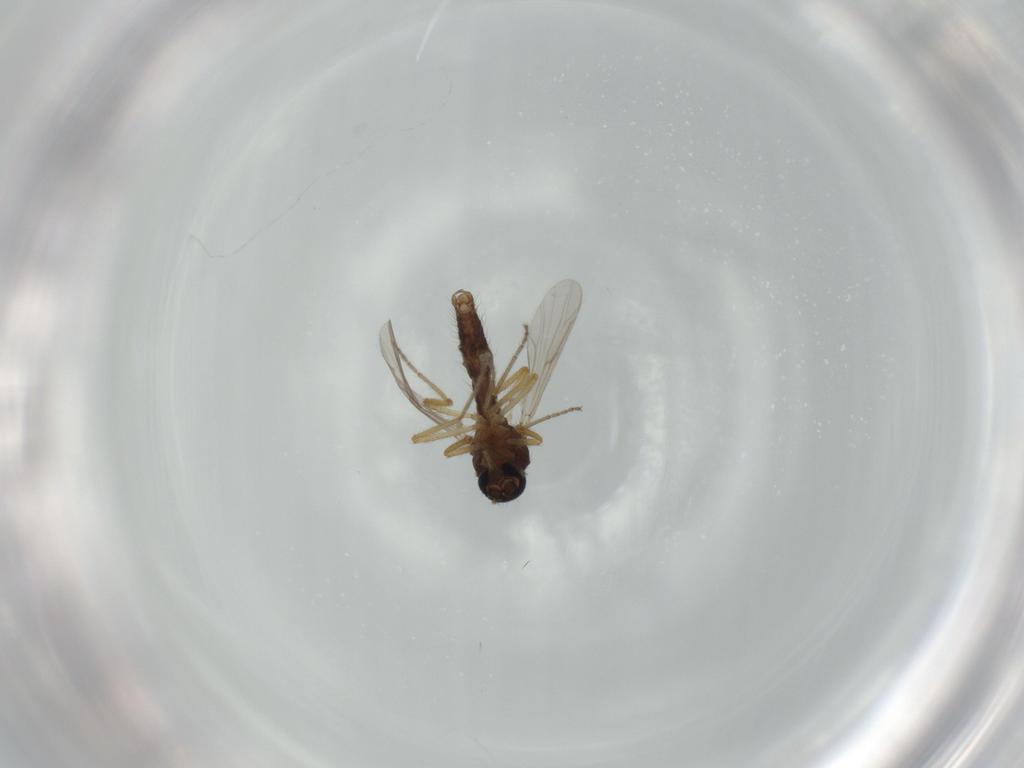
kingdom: Animalia
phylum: Arthropoda
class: Insecta
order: Diptera
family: Ceratopogonidae
